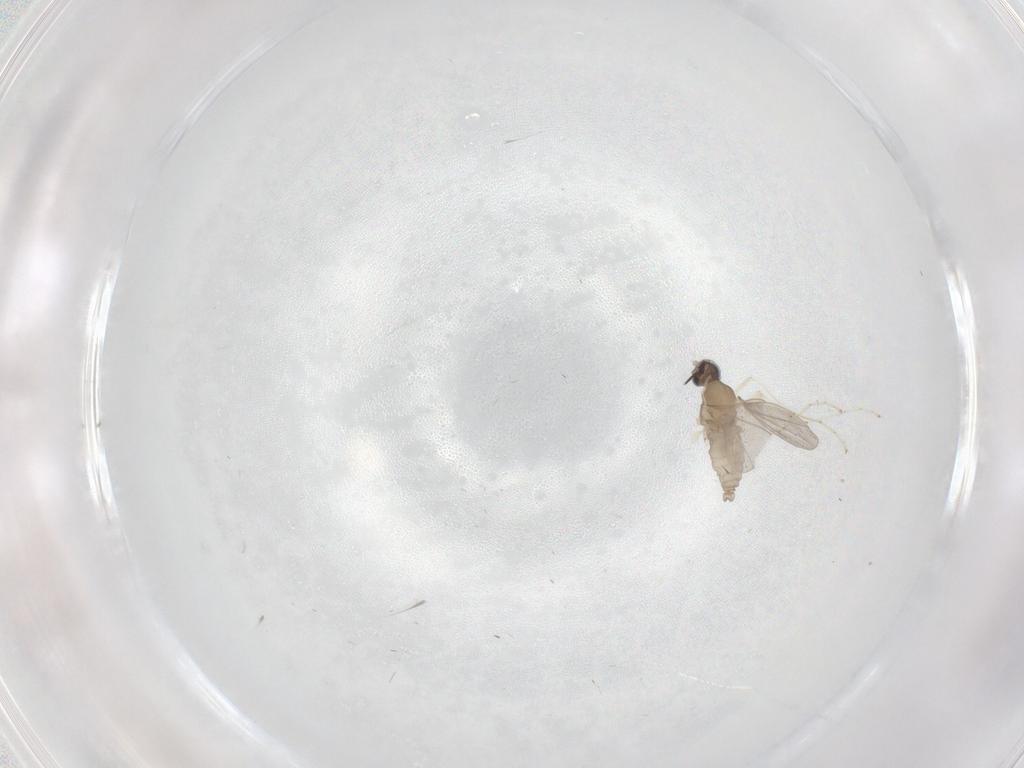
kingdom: Animalia
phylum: Arthropoda
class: Insecta
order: Diptera
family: Cecidomyiidae
